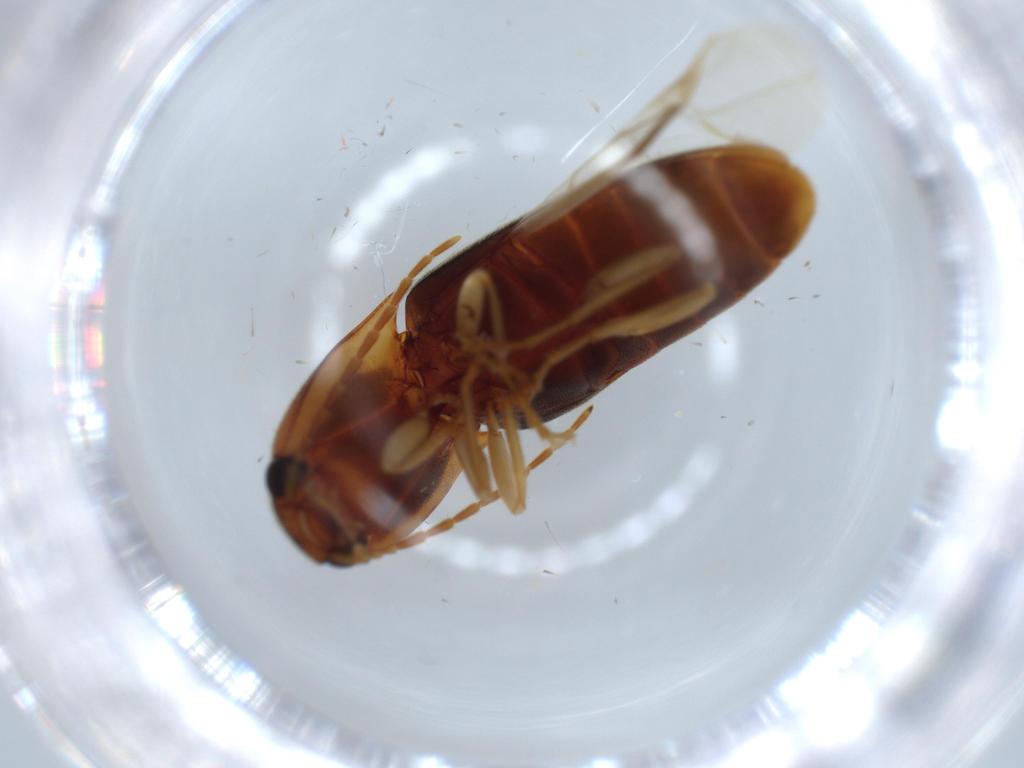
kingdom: Animalia
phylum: Arthropoda
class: Insecta
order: Coleoptera
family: Elateridae
